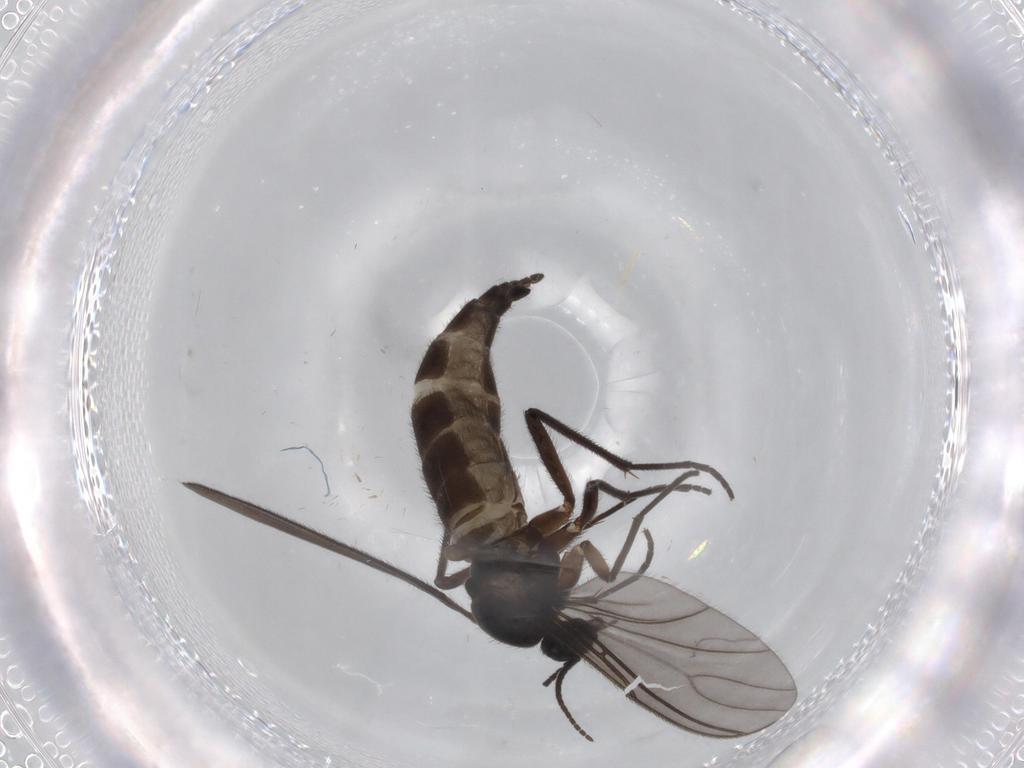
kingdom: Animalia
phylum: Arthropoda
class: Insecta
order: Diptera
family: Sciaridae
